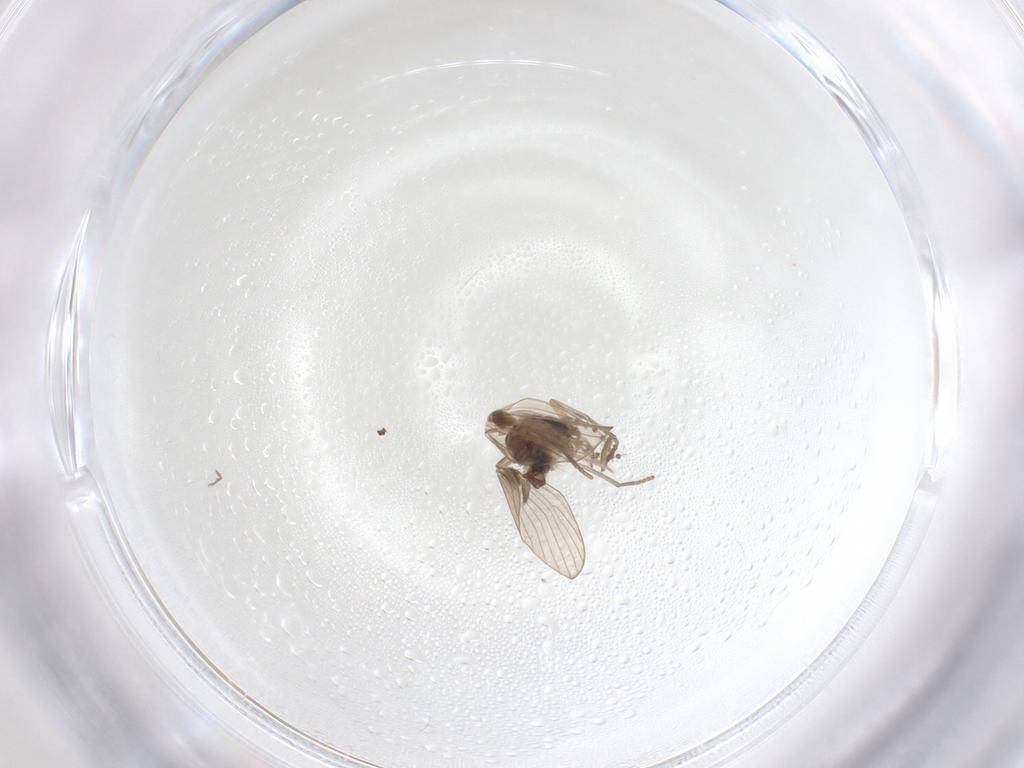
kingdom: Animalia
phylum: Arthropoda
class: Insecta
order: Diptera
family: Psychodidae
